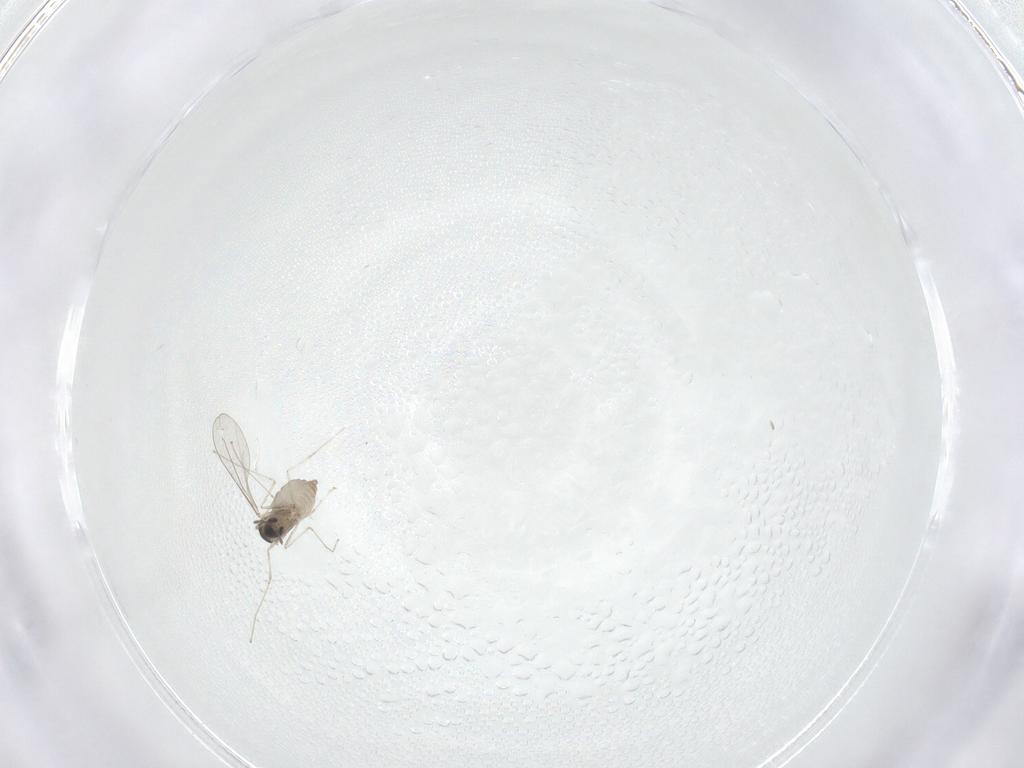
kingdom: Animalia
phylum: Arthropoda
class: Insecta
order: Diptera
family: Cecidomyiidae
